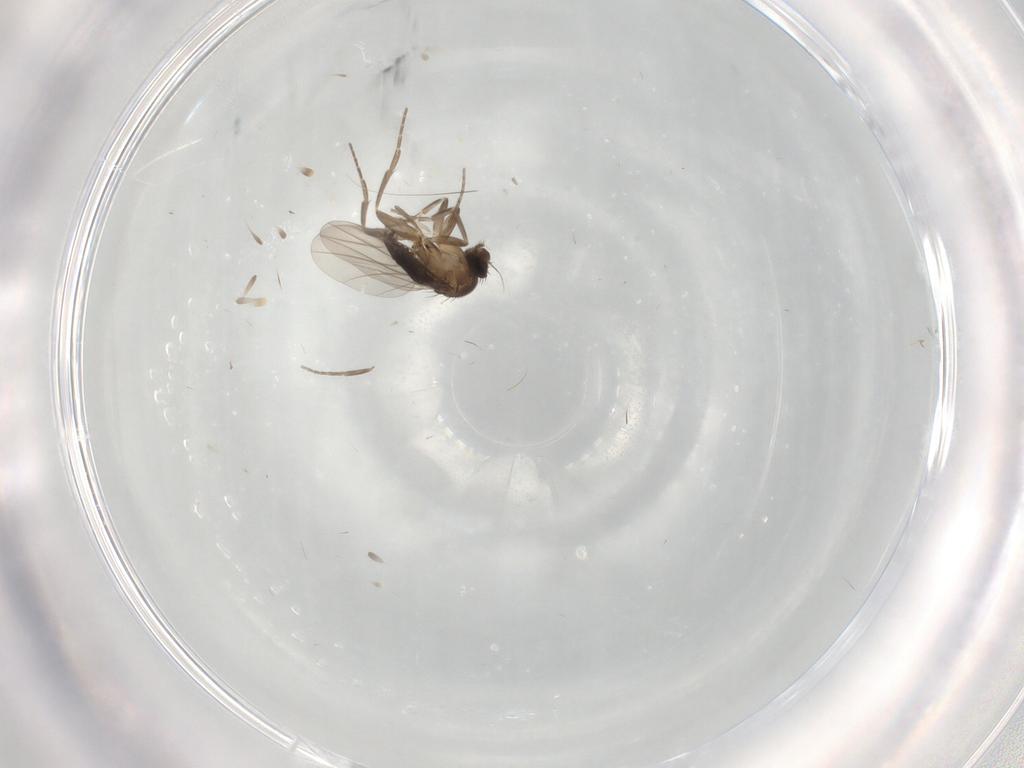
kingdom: Animalia
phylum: Arthropoda
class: Insecta
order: Diptera
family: Phoridae
